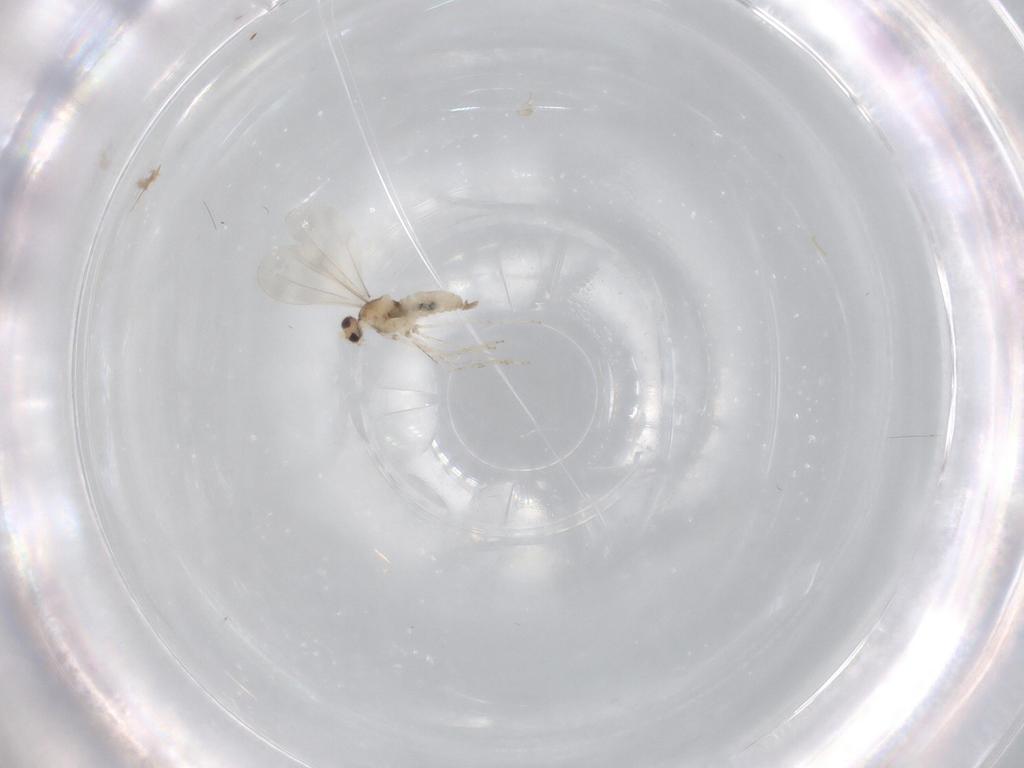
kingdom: Animalia
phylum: Arthropoda
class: Insecta
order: Diptera
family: Cecidomyiidae
